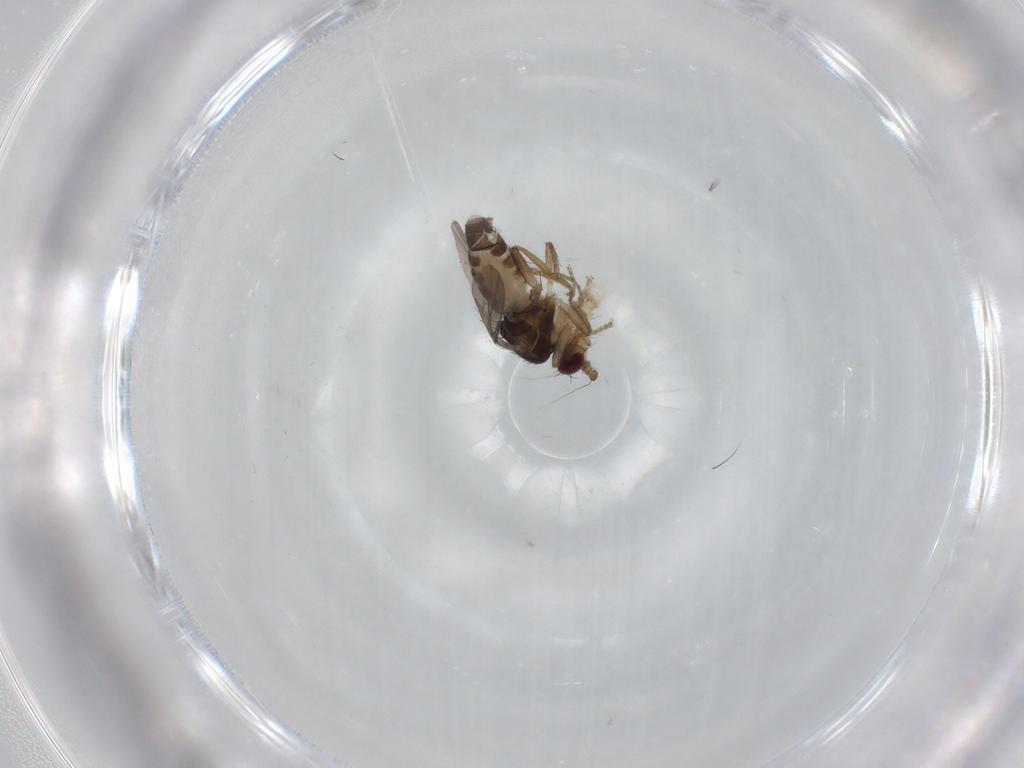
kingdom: Animalia
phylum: Arthropoda
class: Insecta
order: Diptera
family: Sphaeroceridae
